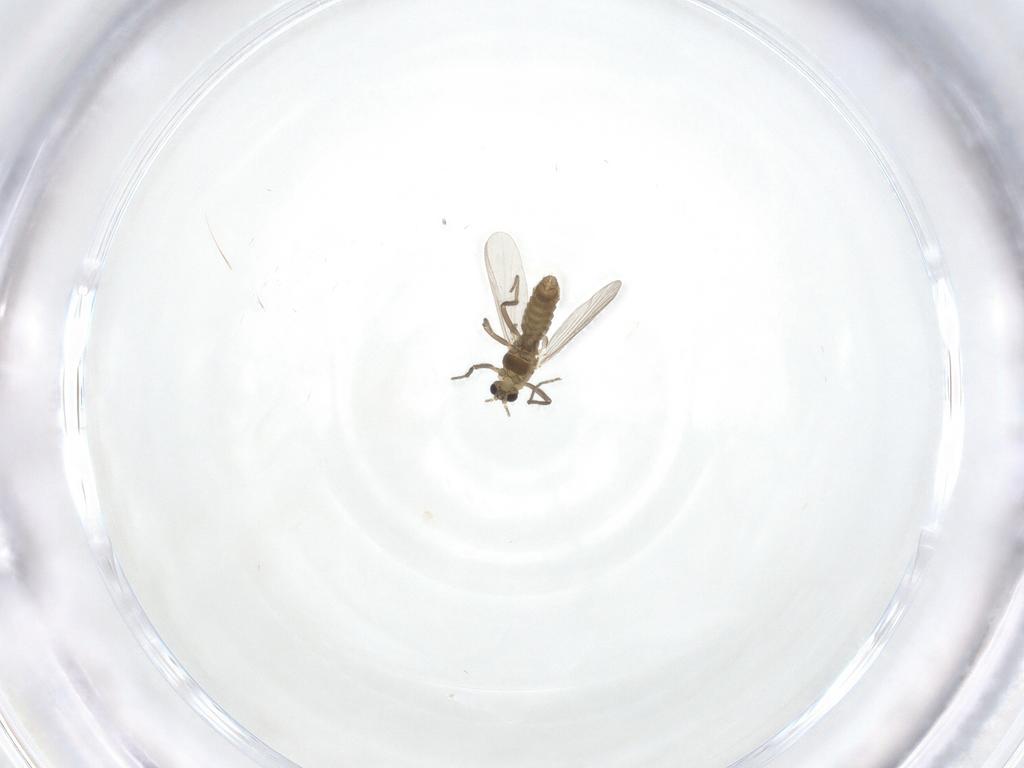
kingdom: Animalia
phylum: Arthropoda
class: Insecta
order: Diptera
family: Chironomidae
